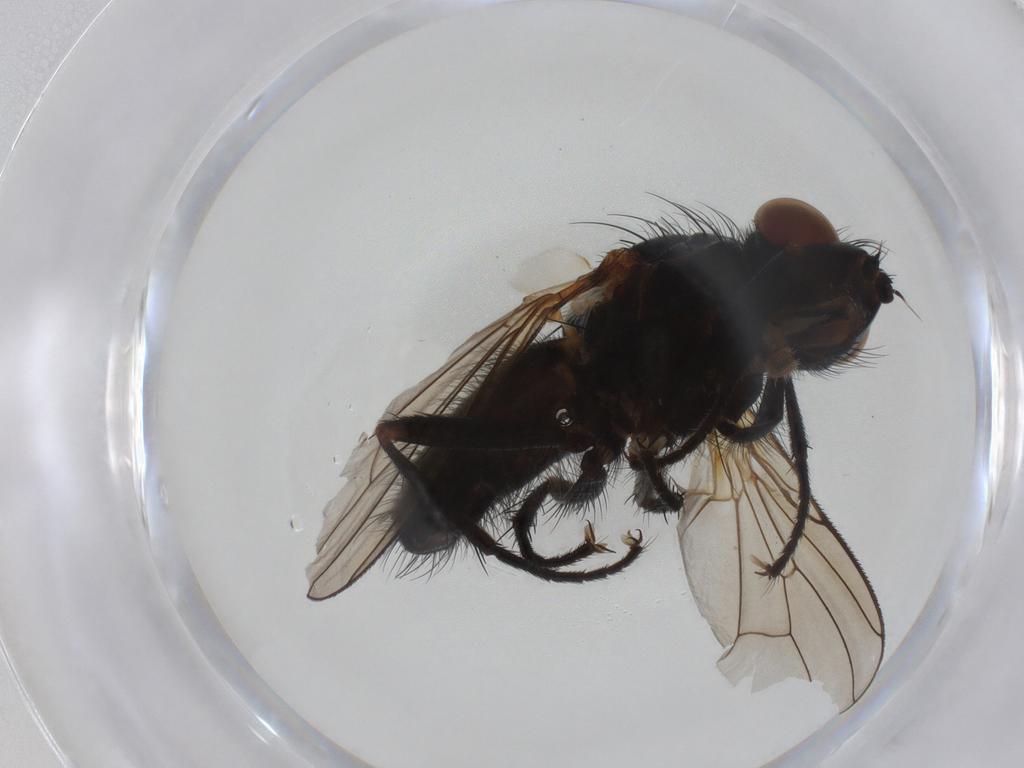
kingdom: Animalia
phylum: Arthropoda
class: Insecta
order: Diptera
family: Anthomyiidae
